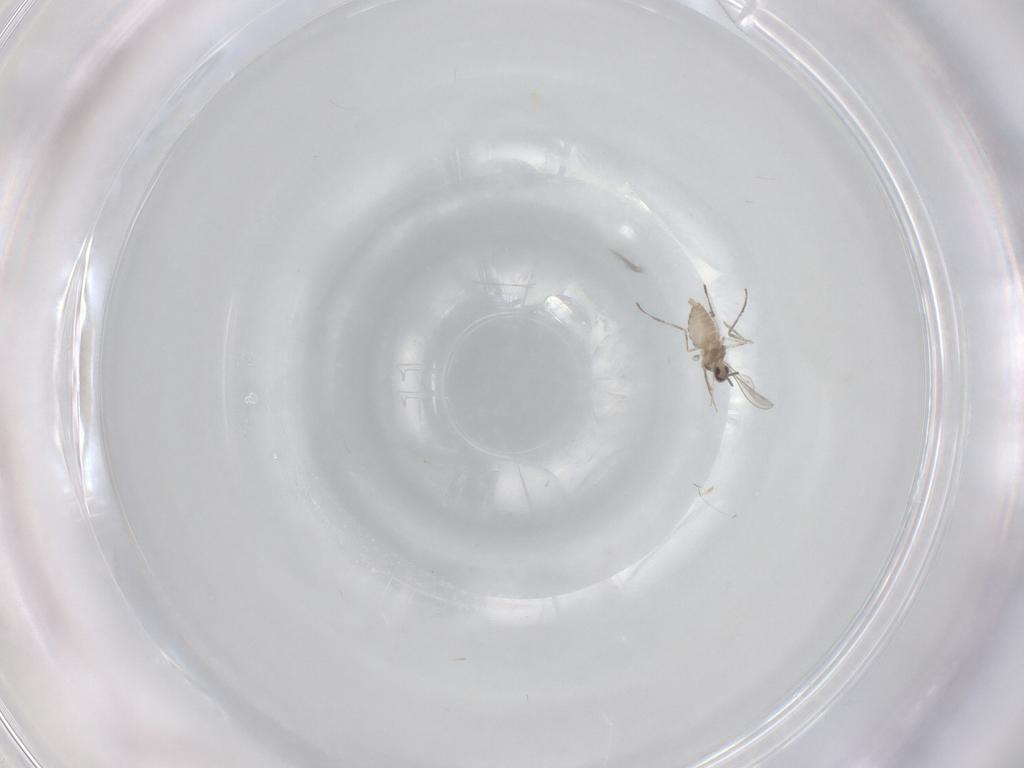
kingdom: Animalia
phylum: Arthropoda
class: Insecta
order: Diptera
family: Cecidomyiidae
